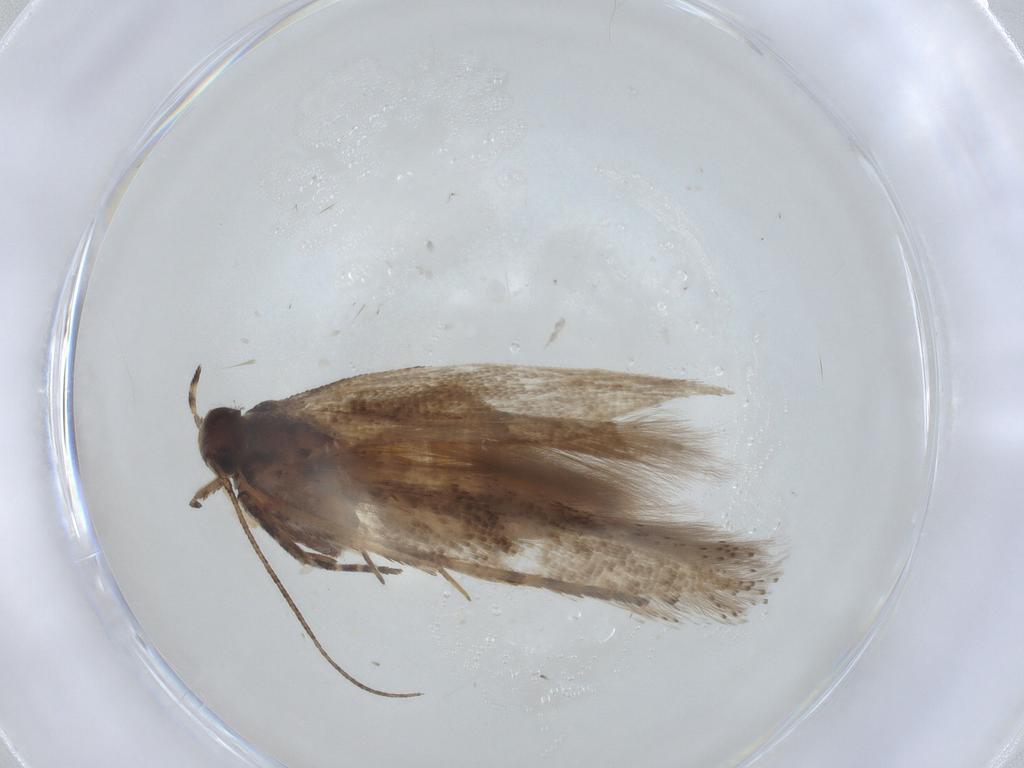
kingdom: Animalia
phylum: Arthropoda
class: Insecta
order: Lepidoptera
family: Gelechiidae
